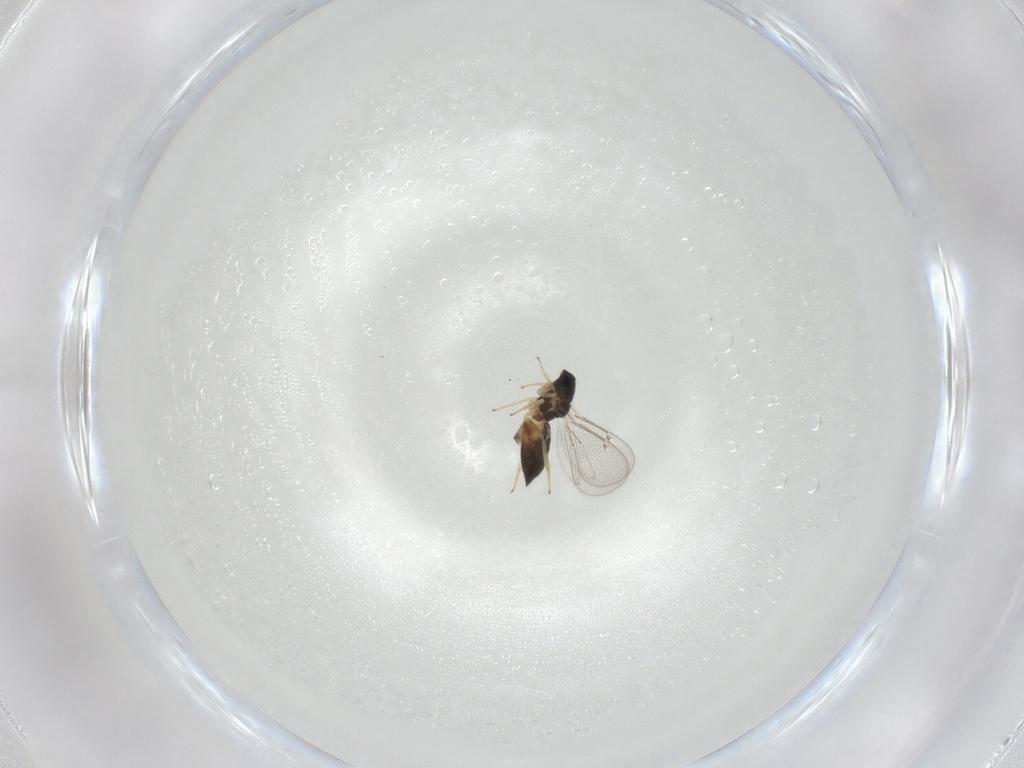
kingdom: Animalia
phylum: Arthropoda
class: Insecta
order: Hymenoptera
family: Eulophidae
